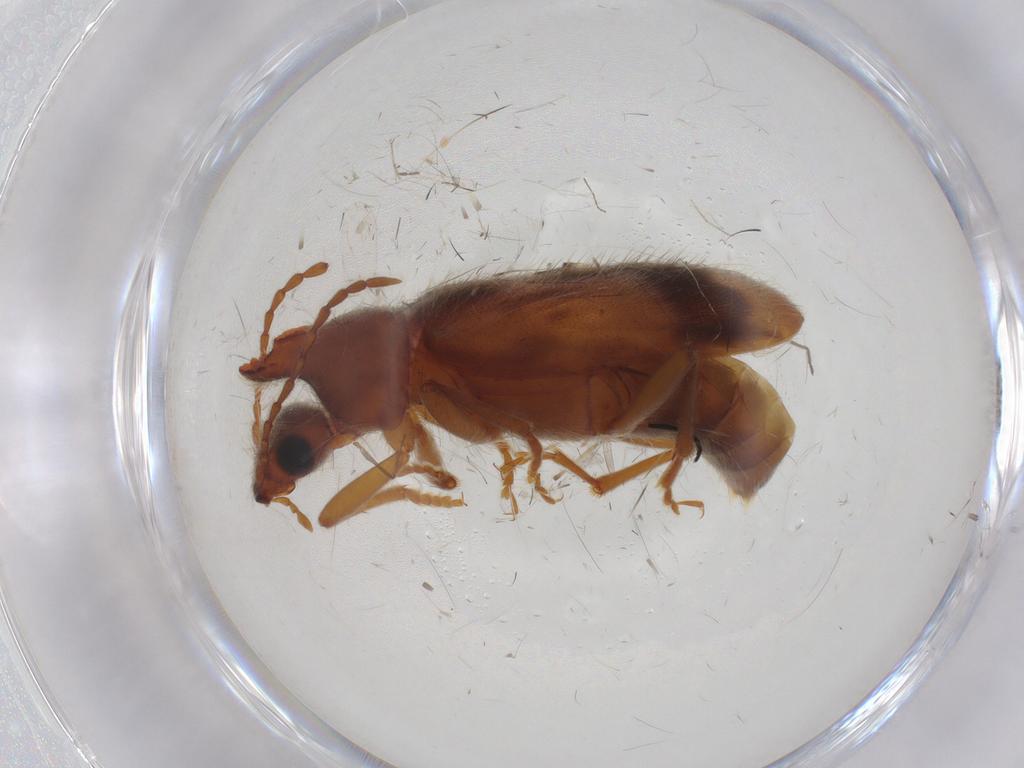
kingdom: Animalia
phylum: Arthropoda
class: Insecta
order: Coleoptera
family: Anthicidae
